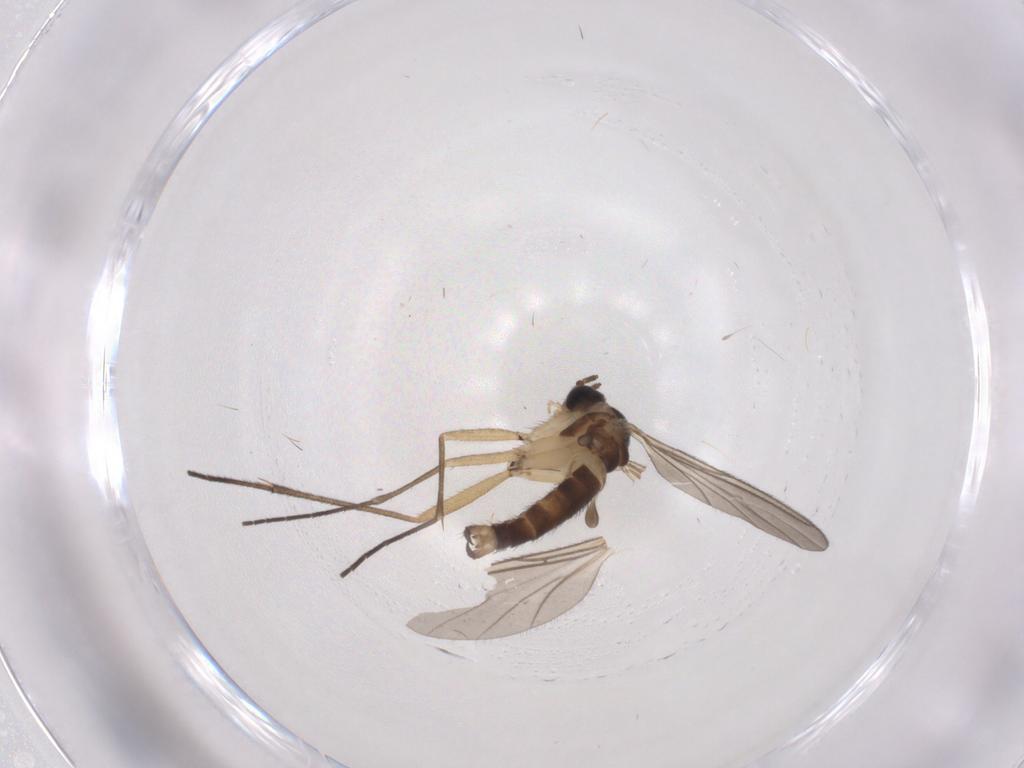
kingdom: Animalia
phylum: Arthropoda
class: Insecta
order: Diptera
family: Sciaridae
